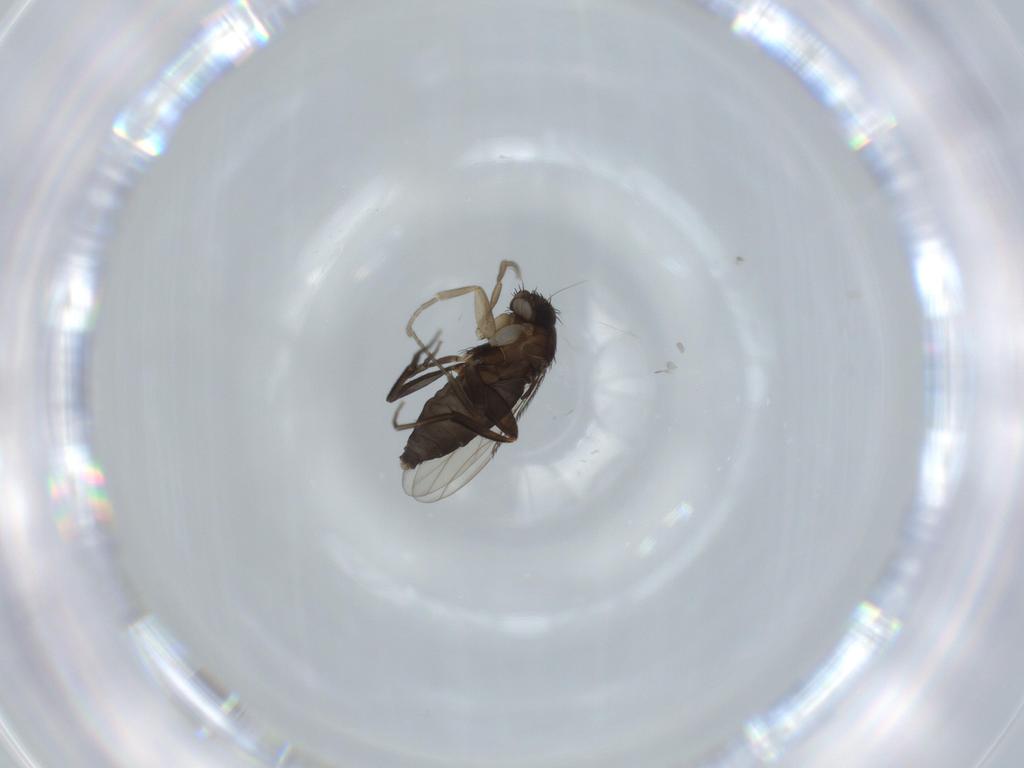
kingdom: Animalia
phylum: Arthropoda
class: Insecta
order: Diptera
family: Phoridae
